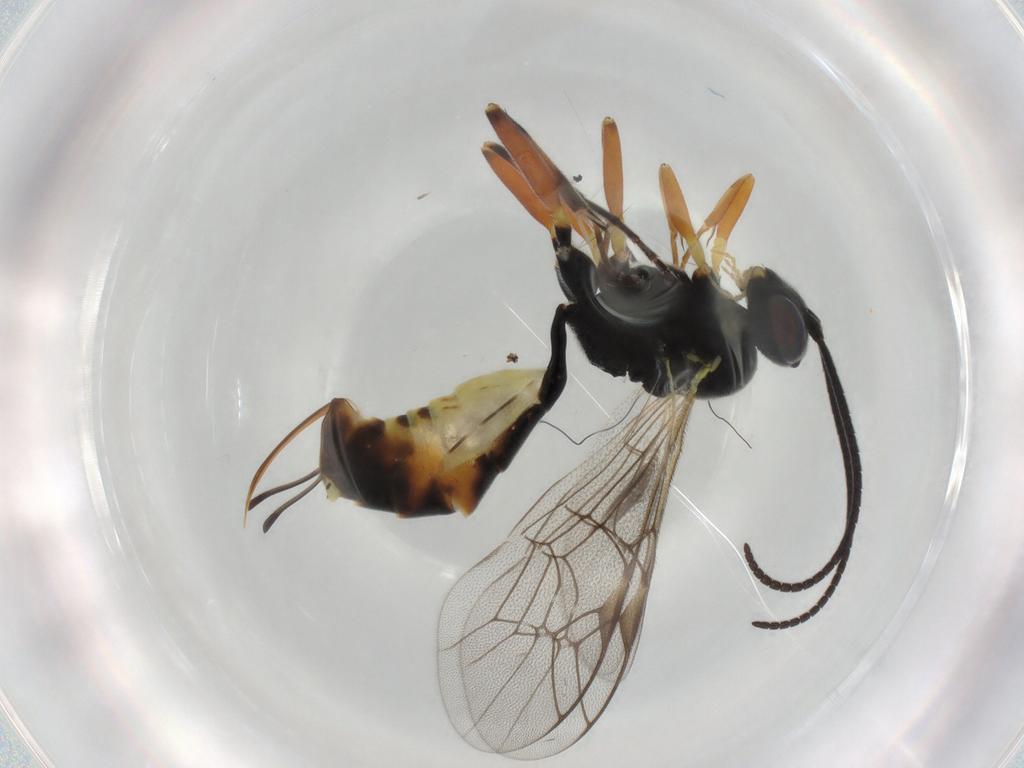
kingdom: Animalia
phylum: Arthropoda
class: Insecta
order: Hymenoptera
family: Ichneumonidae
